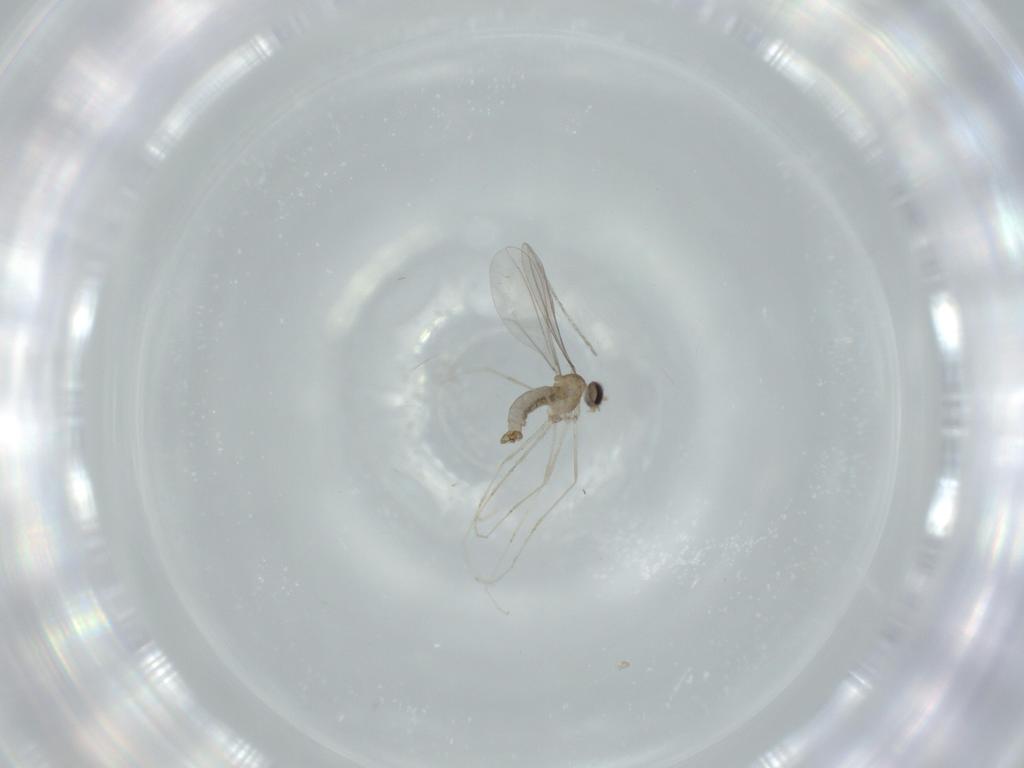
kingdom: Animalia
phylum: Arthropoda
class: Insecta
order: Diptera
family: Cecidomyiidae
